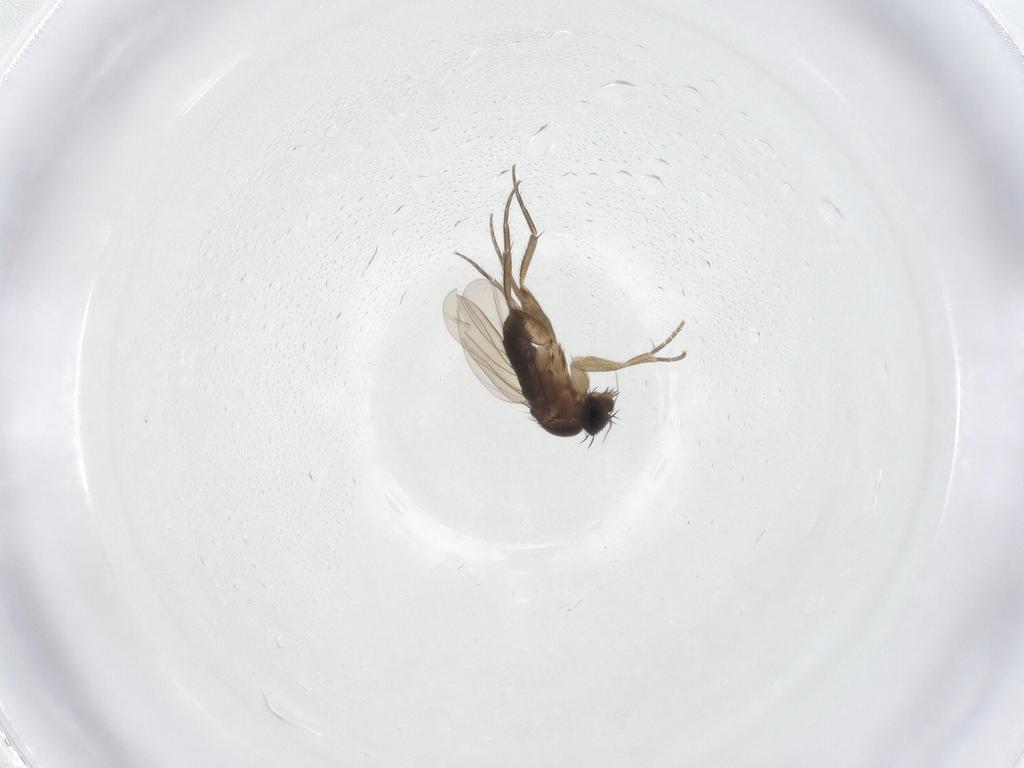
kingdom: Animalia
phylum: Arthropoda
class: Insecta
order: Diptera
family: Phoridae
